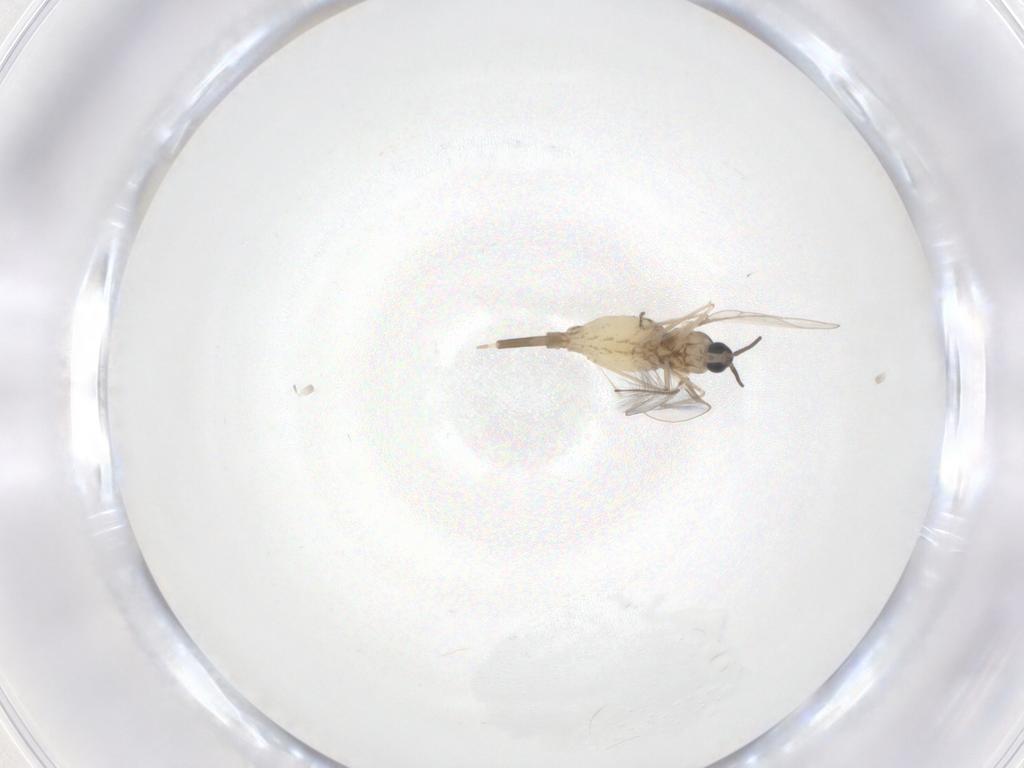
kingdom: Animalia
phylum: Arthropoda
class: Insecta
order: Diptera
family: Cecidomyiidae
